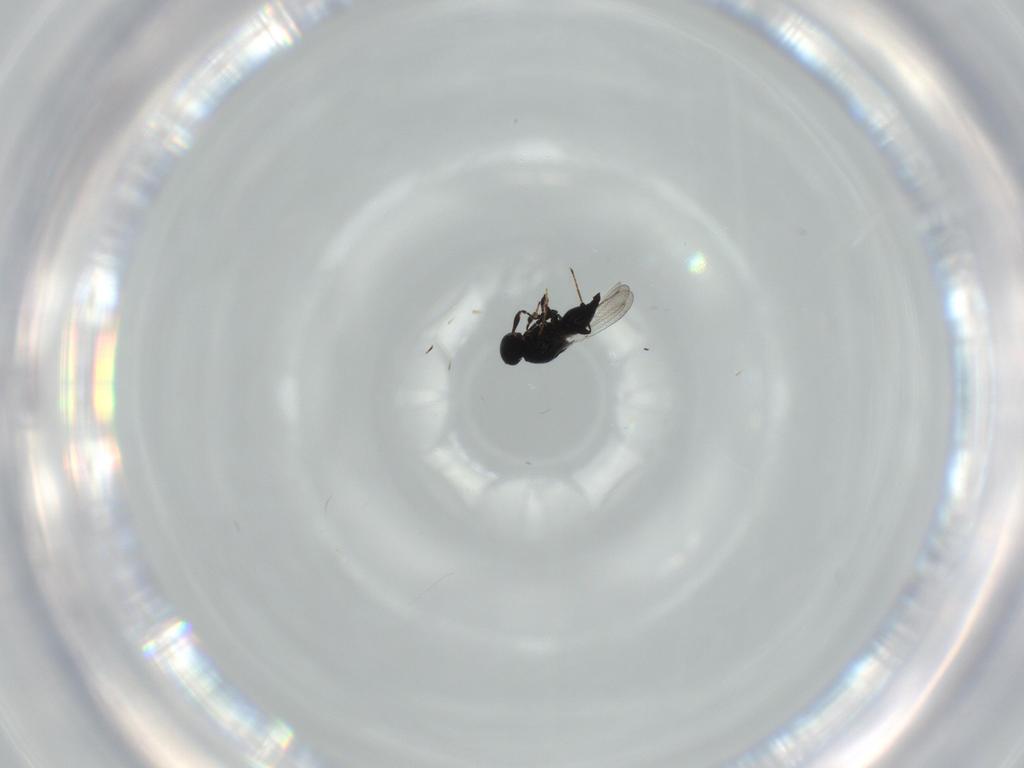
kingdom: Animalia
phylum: Arthropoda
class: Insecta
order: Hymenoptera
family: Platygastridae
